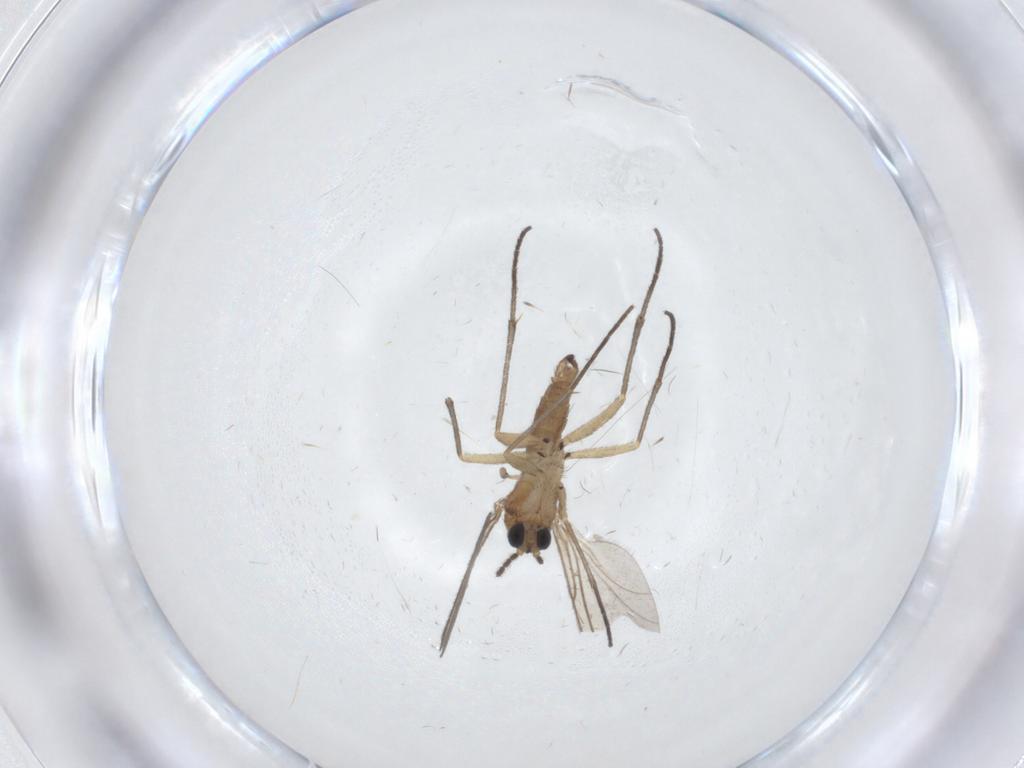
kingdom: Animalia
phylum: Arthropoda
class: Insecta
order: Diptera
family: Sciaridae
